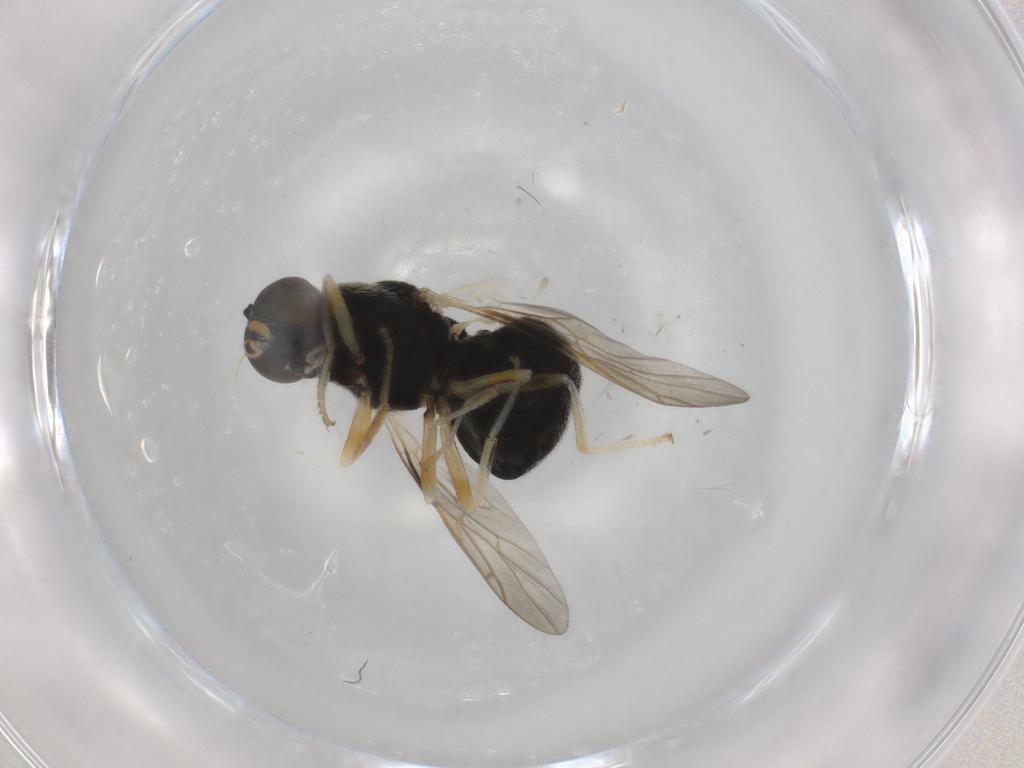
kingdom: Animalia
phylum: Arthropoda
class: Insecta
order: Diptera
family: Stratiomyidae
